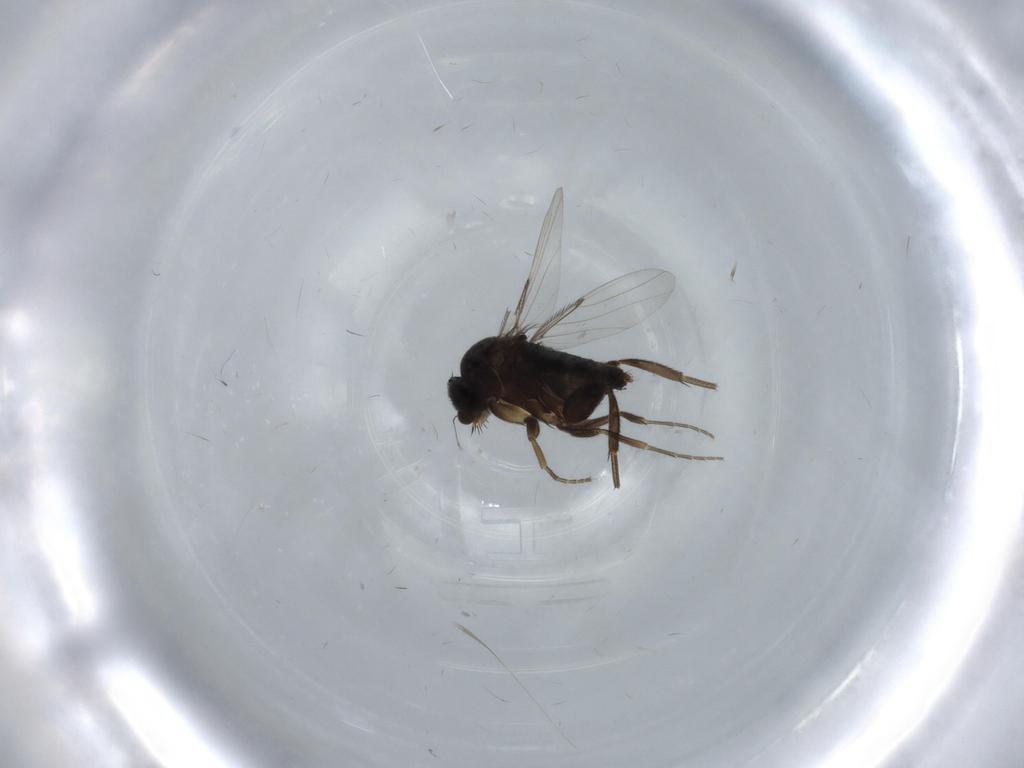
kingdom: Animalia
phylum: Arthropoda
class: Insecta
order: Diptera
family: Phoridae
